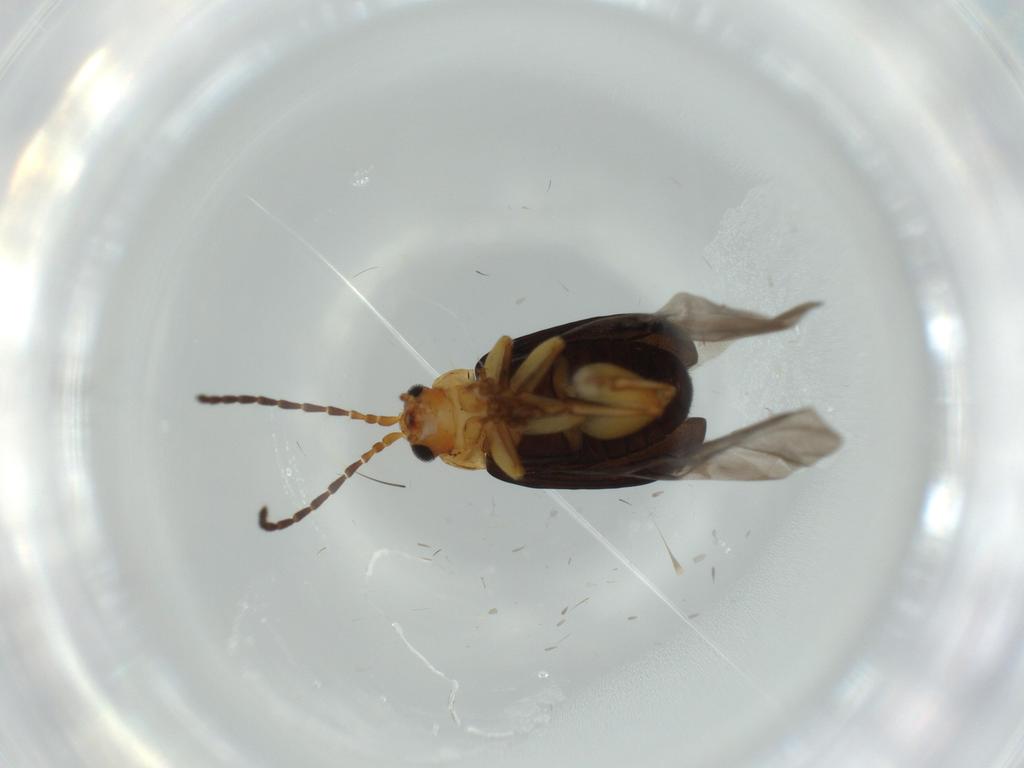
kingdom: Animalia
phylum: Arthropoda
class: Insecta
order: Coleoptera
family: Chrysomelidae
